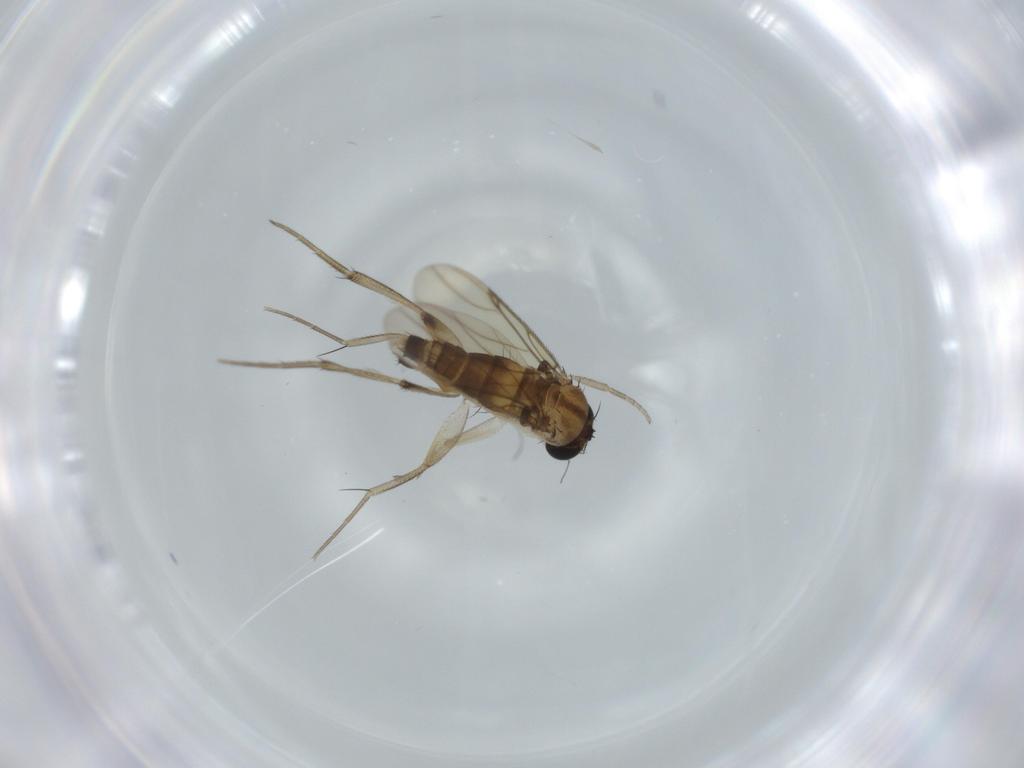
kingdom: Animalia
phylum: Arthropoda
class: Insecta
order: Diptera
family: Phoridae
